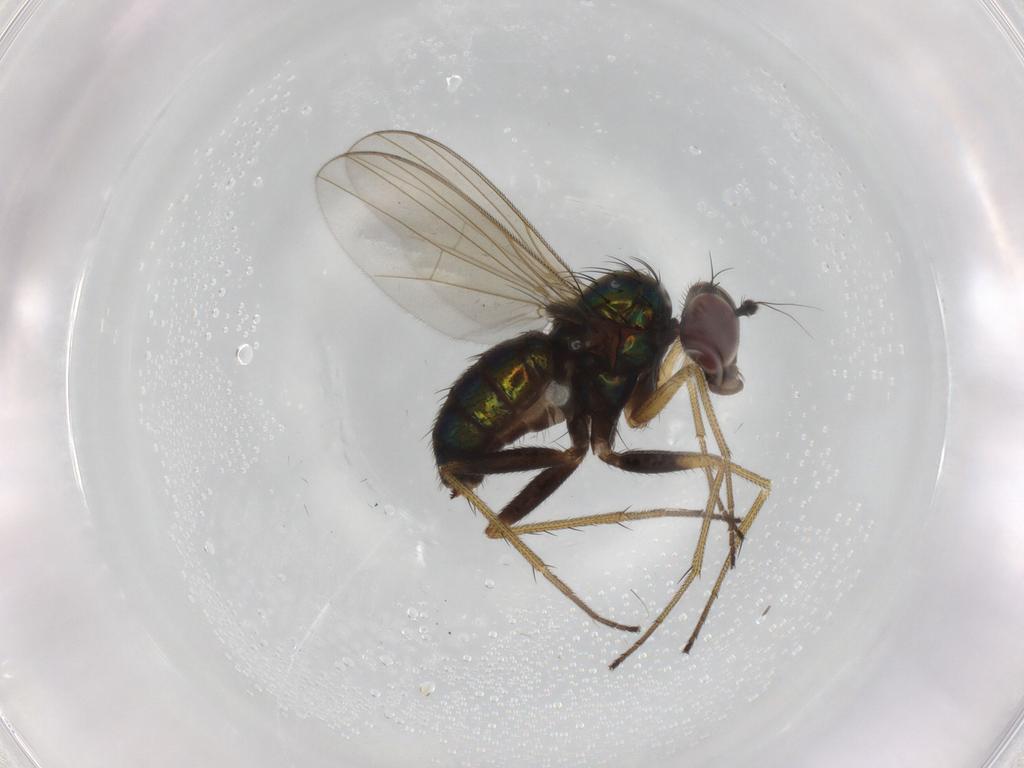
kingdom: Animalia
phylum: Arthropoda
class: Insecta
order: Diptera
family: Dolichopodidae
